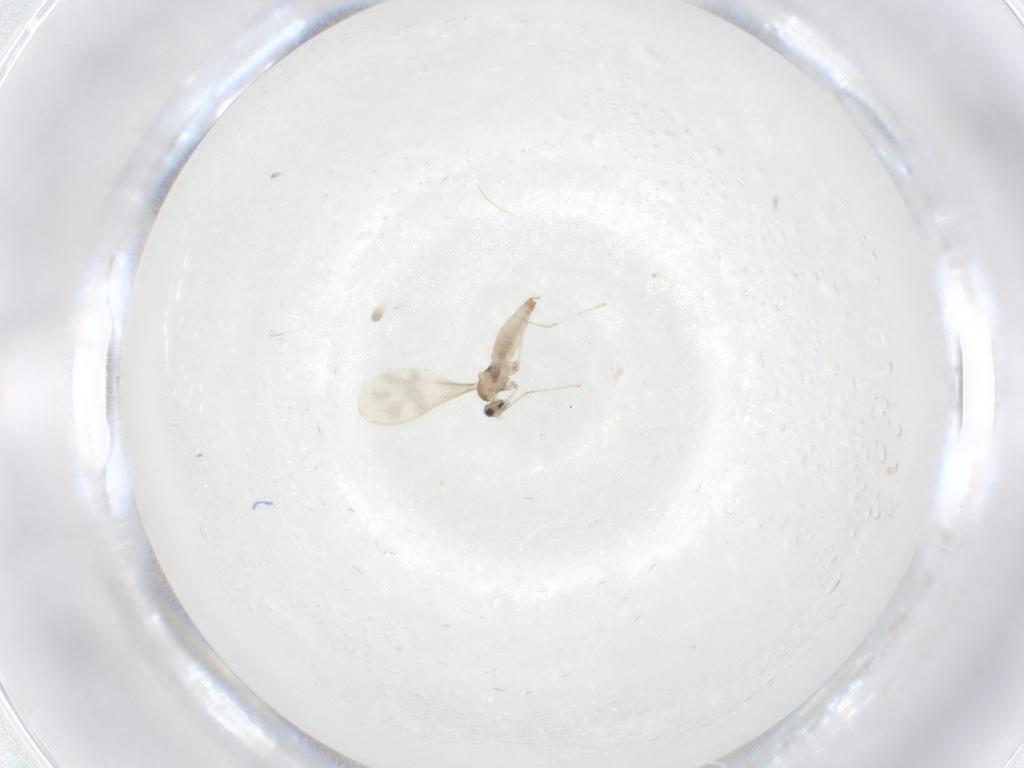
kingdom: Animalia
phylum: Arthropoda
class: Insecta
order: Diptera
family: Cecidomyiidae
